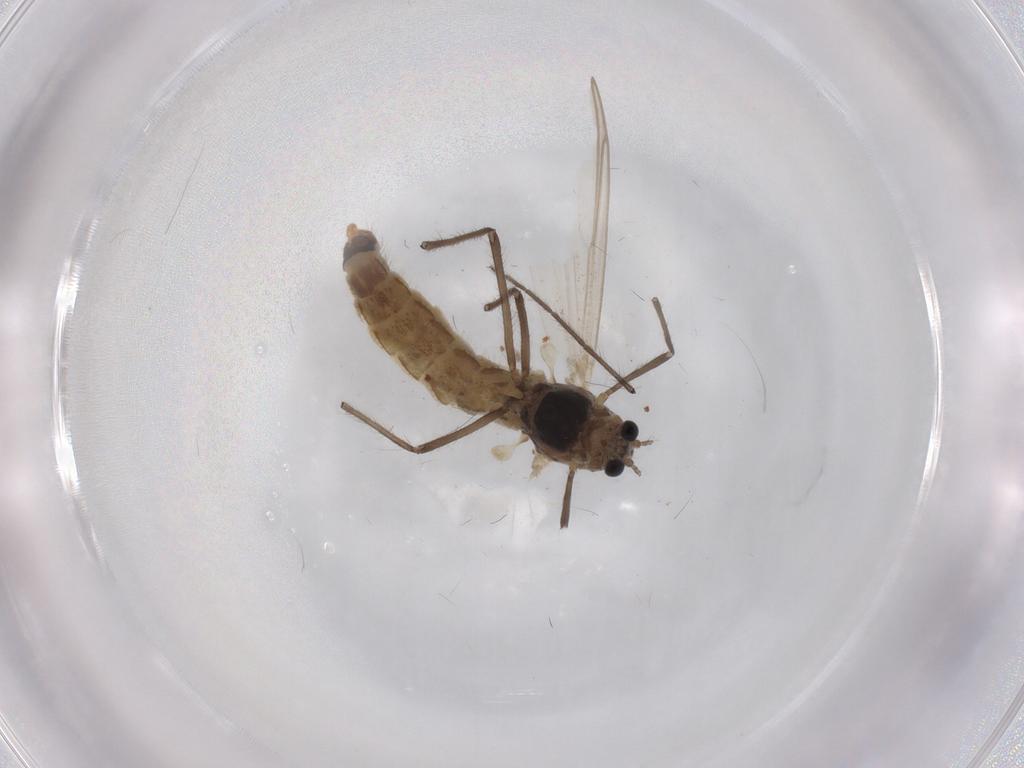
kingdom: Animalia
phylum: Arthropoda
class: Insecta
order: Diptera
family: Chironomidae
